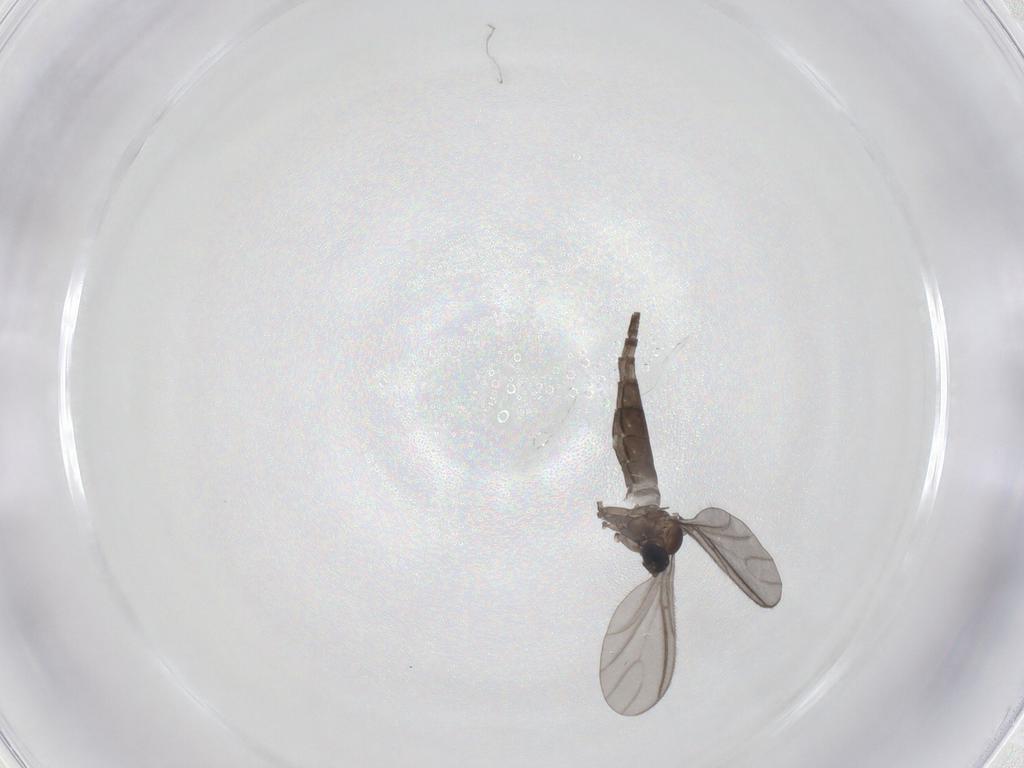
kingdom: Animalia
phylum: Arthropoda
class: Insecta
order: Diptera
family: Sciaridae
